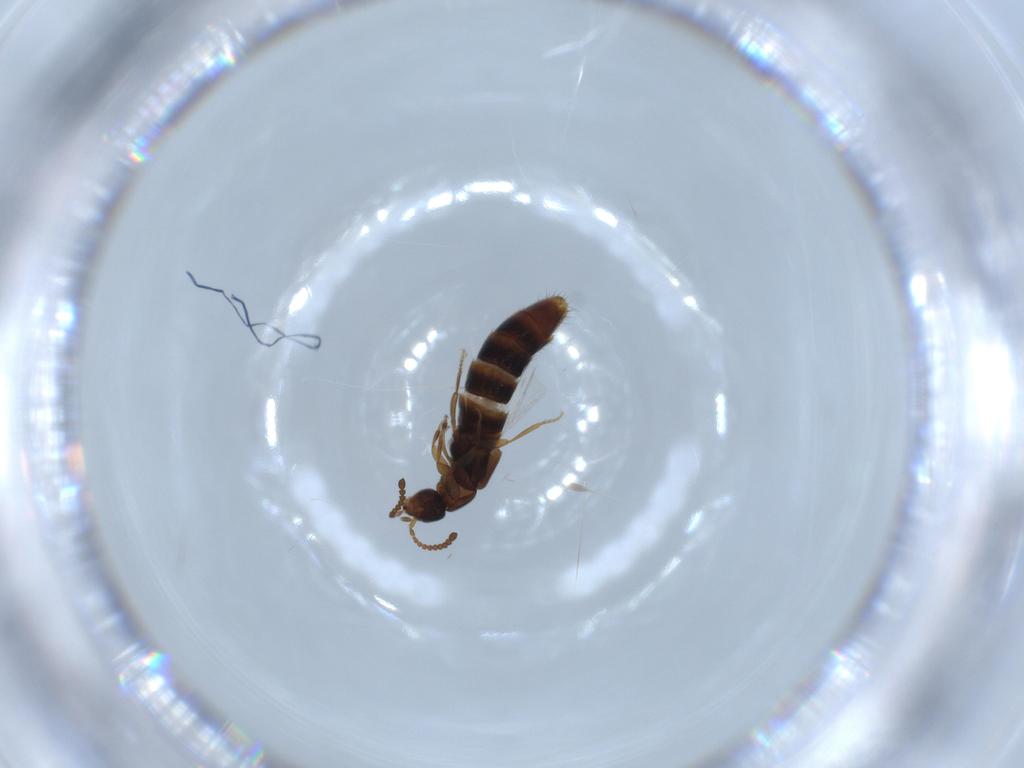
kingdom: Animalia
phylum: Arthropoda
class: Insecta
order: Coleoptera
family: Staphylinidae
